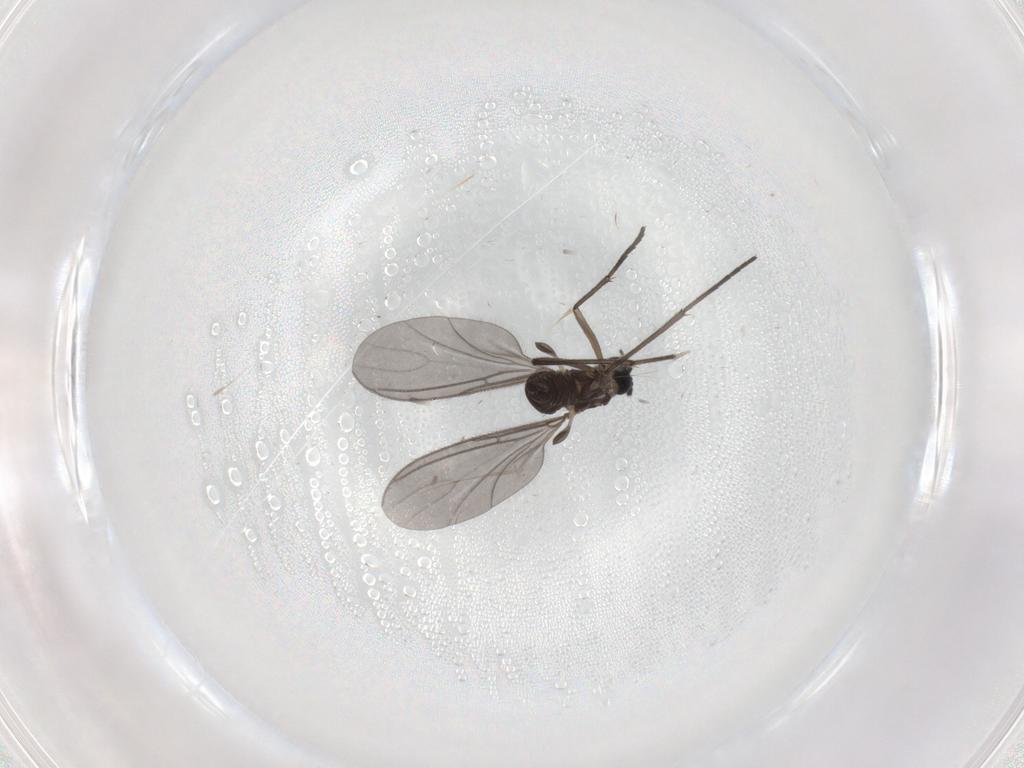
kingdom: Animalia
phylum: Arthropoda
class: Insecta
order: Diptera
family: Sciaridae
